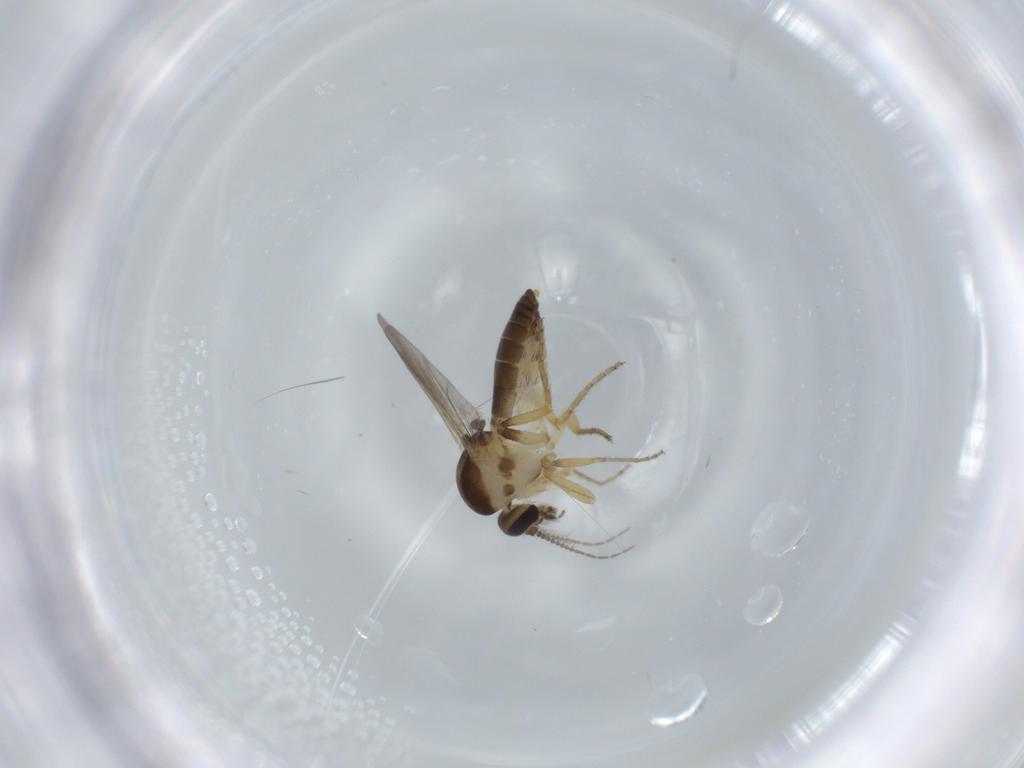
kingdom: Animalia
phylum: Arthropoda
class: Insecta
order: Diptera
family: Ceratopogonidae
